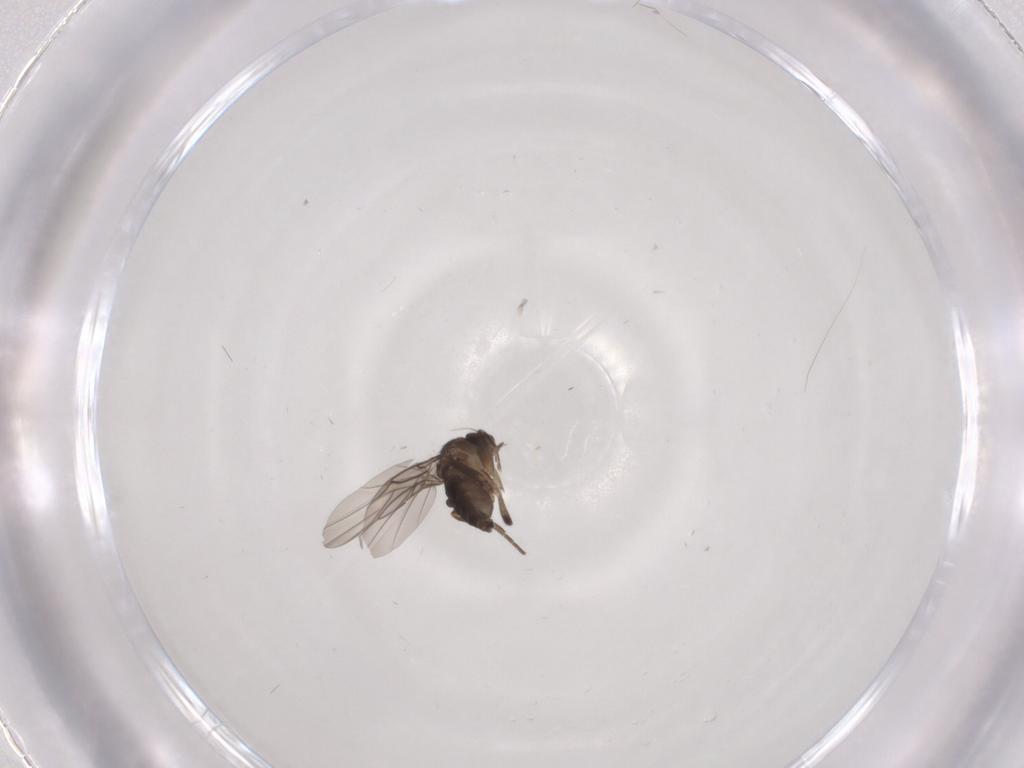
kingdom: Animalia
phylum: Arthropoda
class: Insecta
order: Diptera
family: Phoridae
